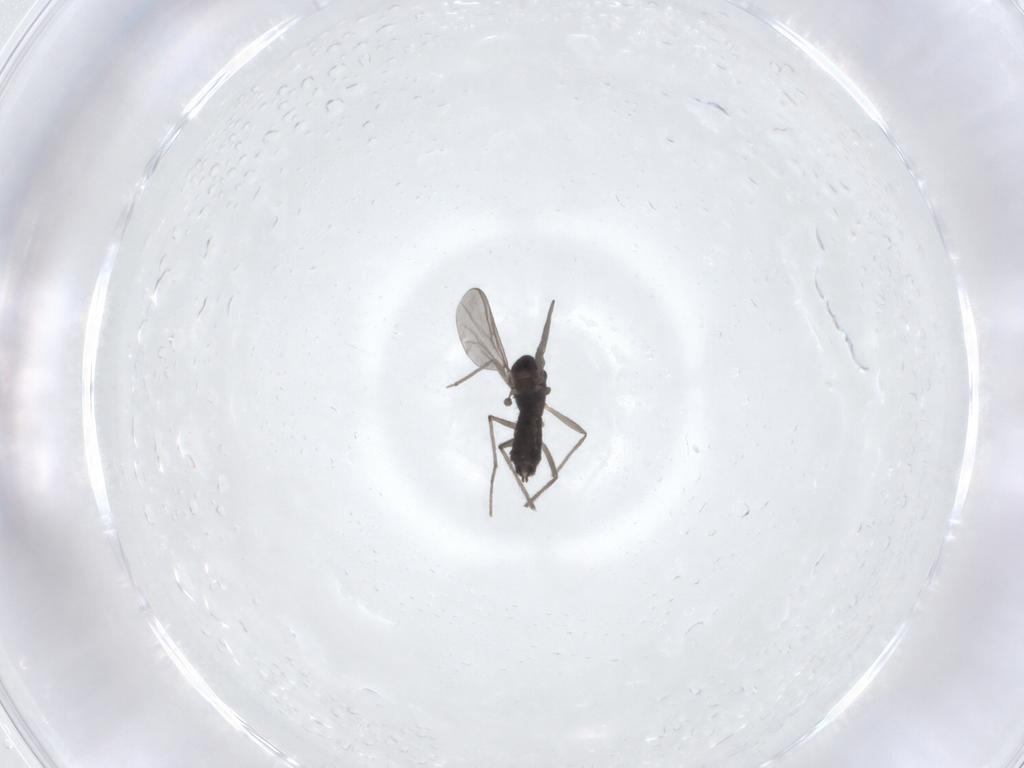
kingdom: Animalia
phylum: Arthropoda
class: Insecta
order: Diptera
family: Chironomidae
